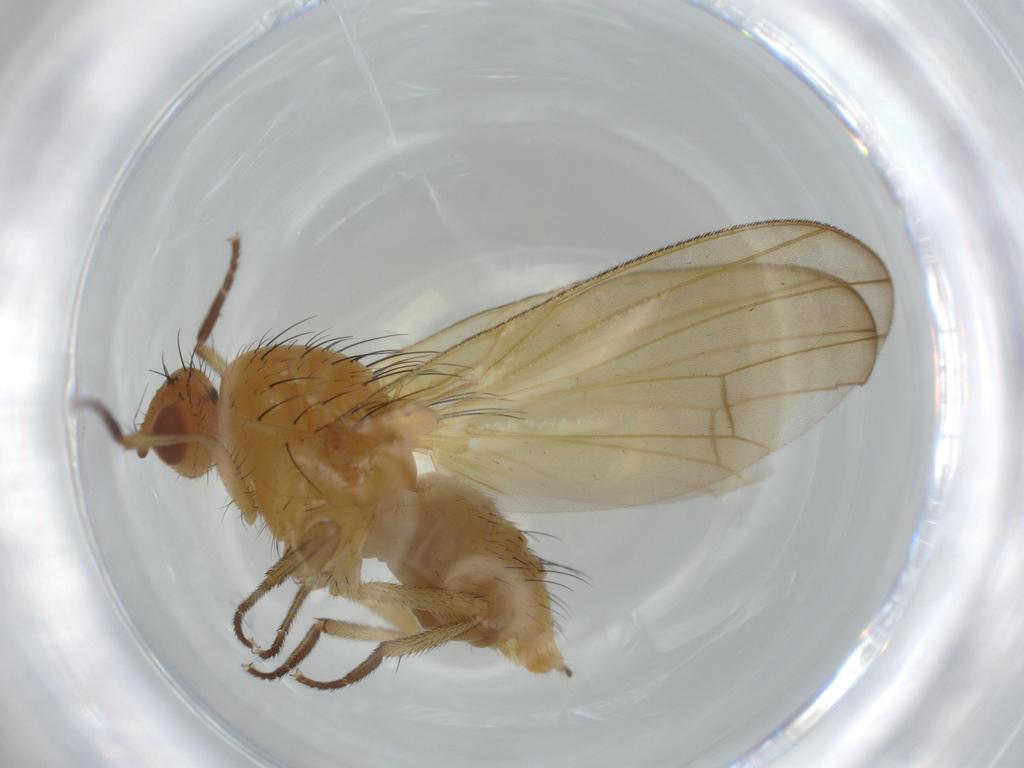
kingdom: Animalia
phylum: Arthropoda
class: Insecta
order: Diptera
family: Lauxaniidae
